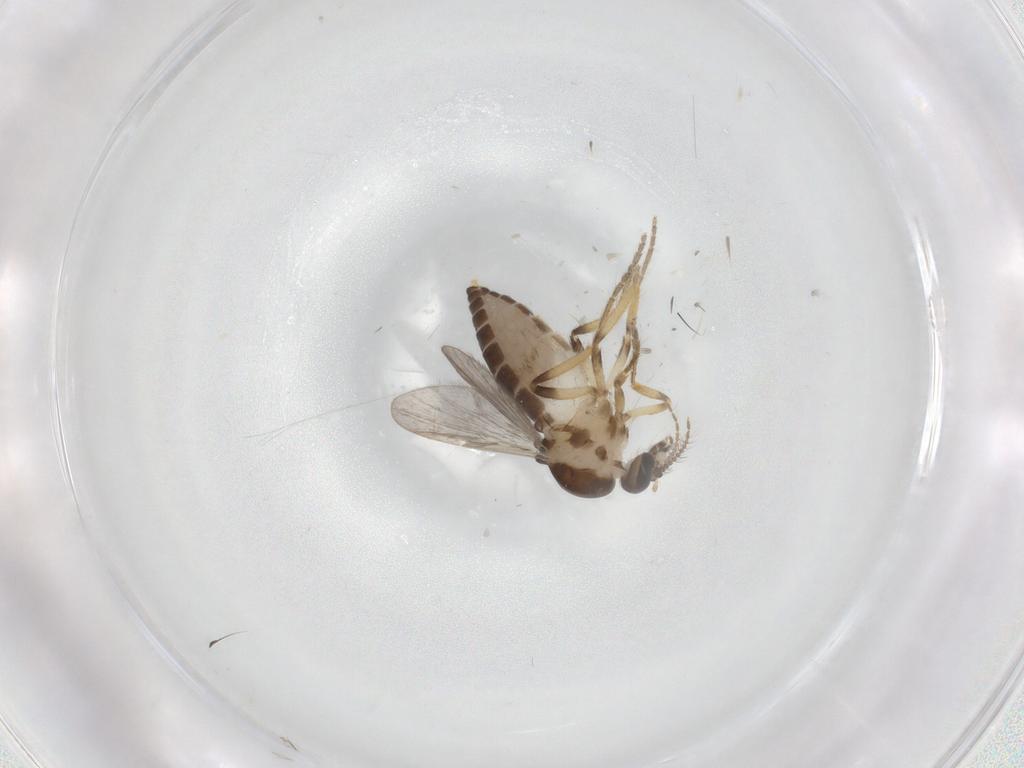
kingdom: Animalia
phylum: Arthropoda
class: Insecta
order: Diptera
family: Ceratopogonidae
